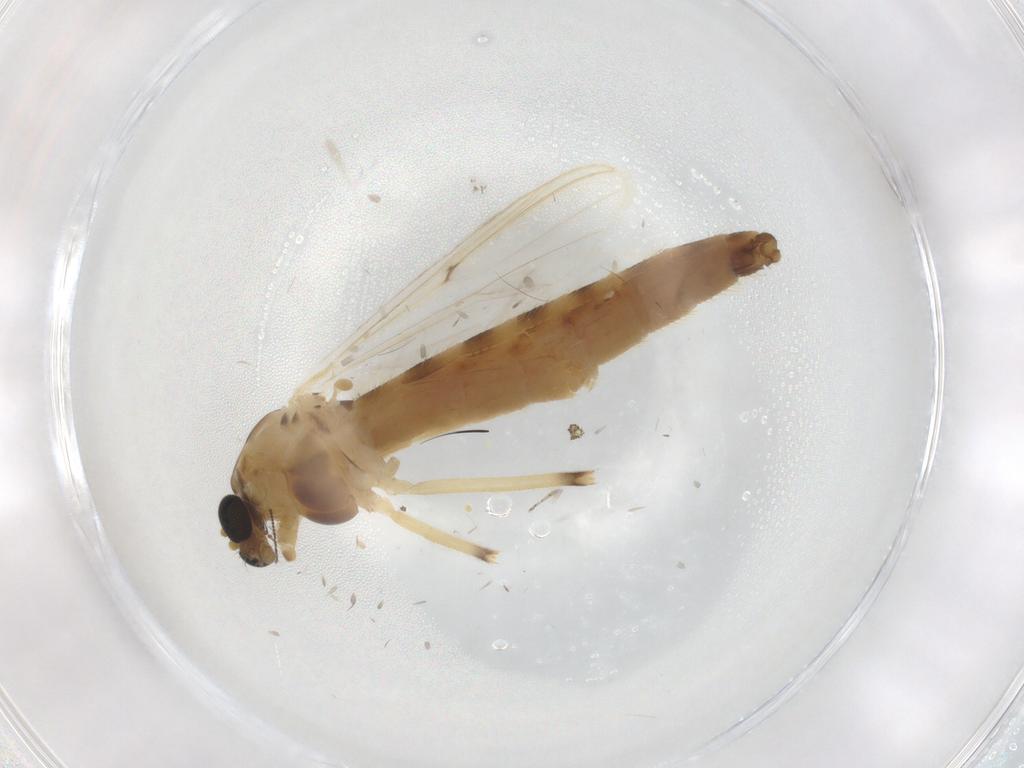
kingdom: Animalia
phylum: Arthropoda
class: Insecta
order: Diptera
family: Chironomidae
